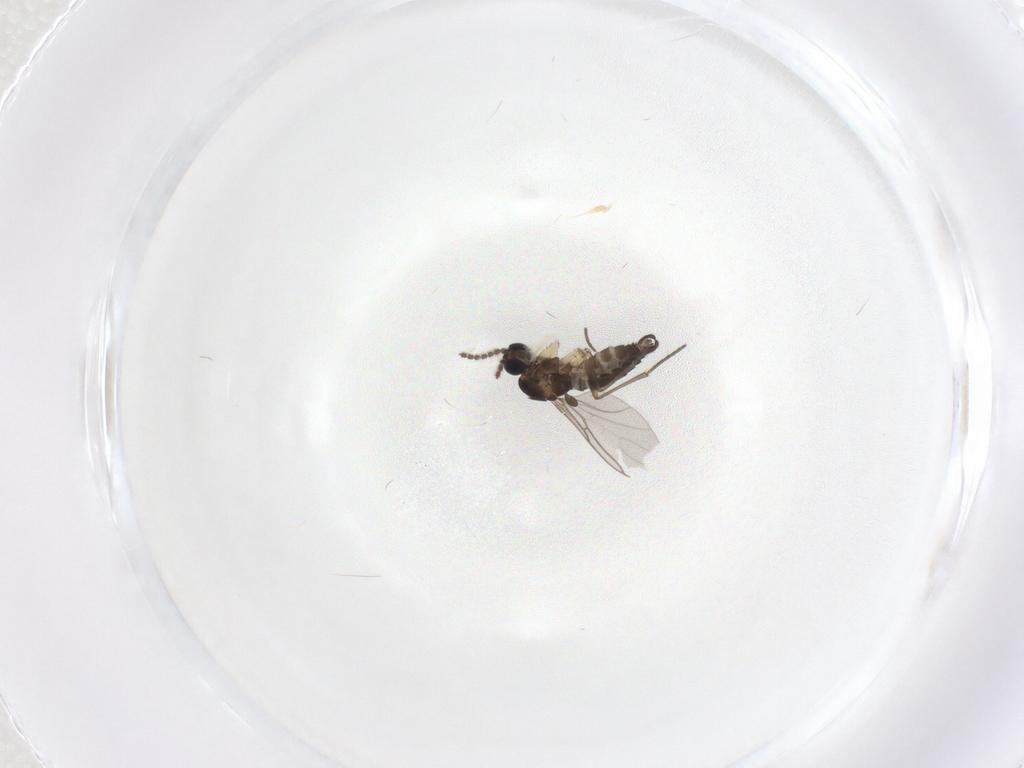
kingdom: Animalia
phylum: Arthropoda
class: Insecta
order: Diptera
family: Sciaridae
